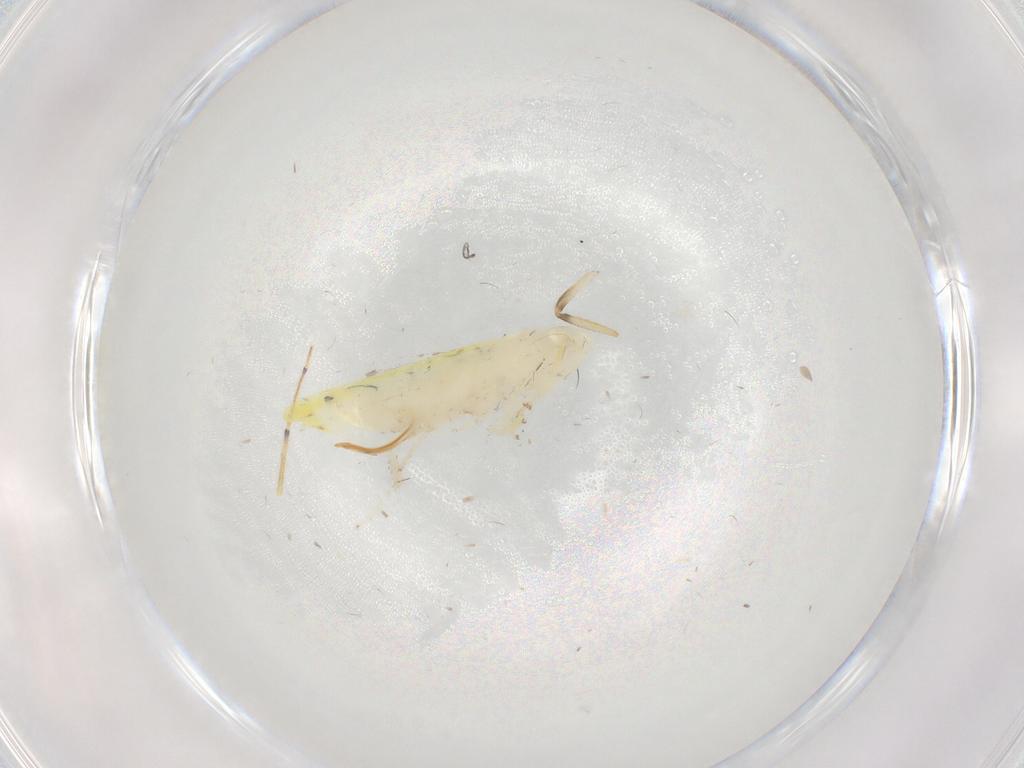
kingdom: Animalia
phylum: Arthropoda
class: Insecta
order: Hemiptera
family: Cicadellidae
